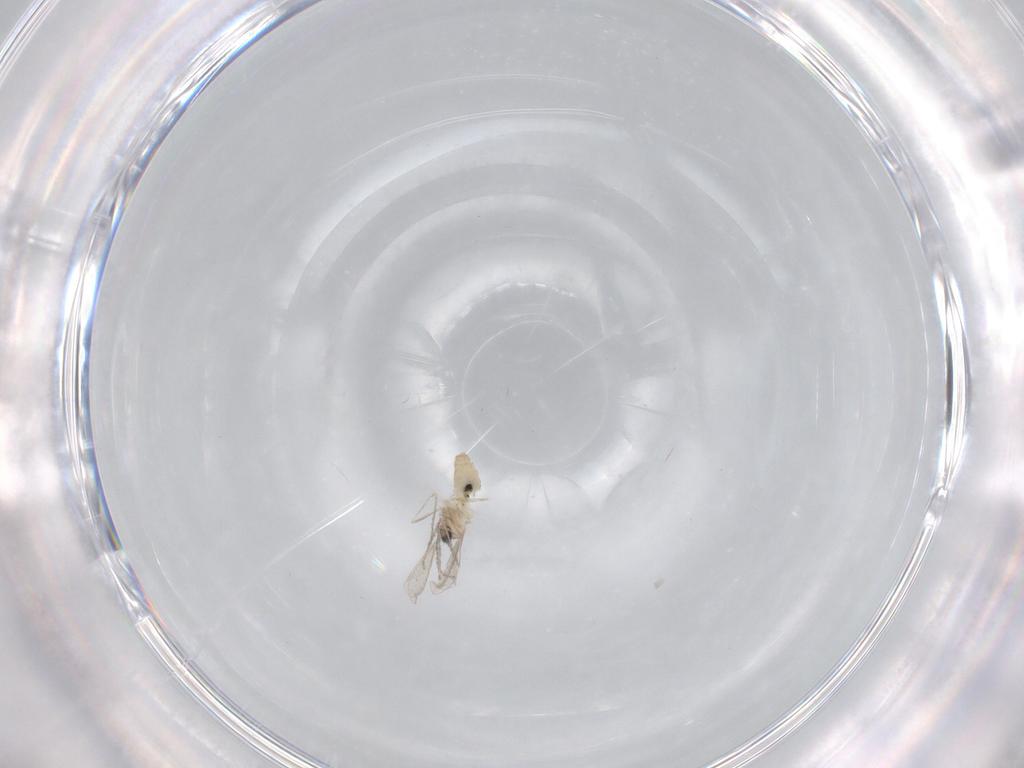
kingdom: Animalia
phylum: Arthropoda
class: Insecta
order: Diptera
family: Cecidomyiidae
